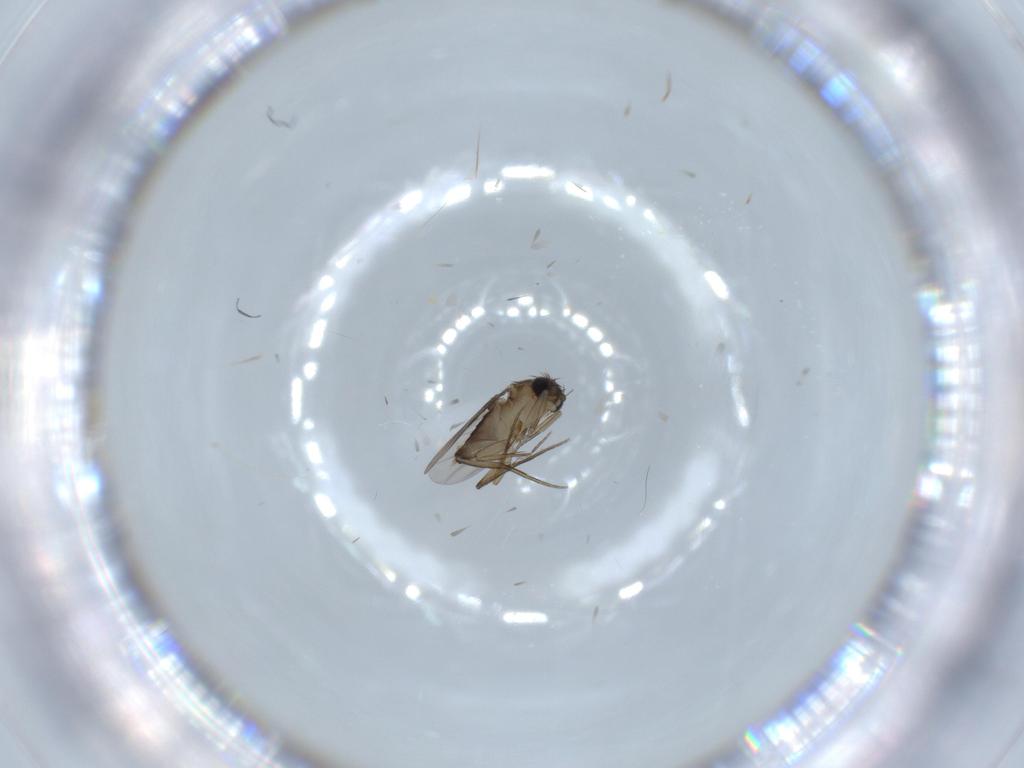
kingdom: Animalia
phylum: Arthropoda
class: Insecta
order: Diptera
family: Phoridae
